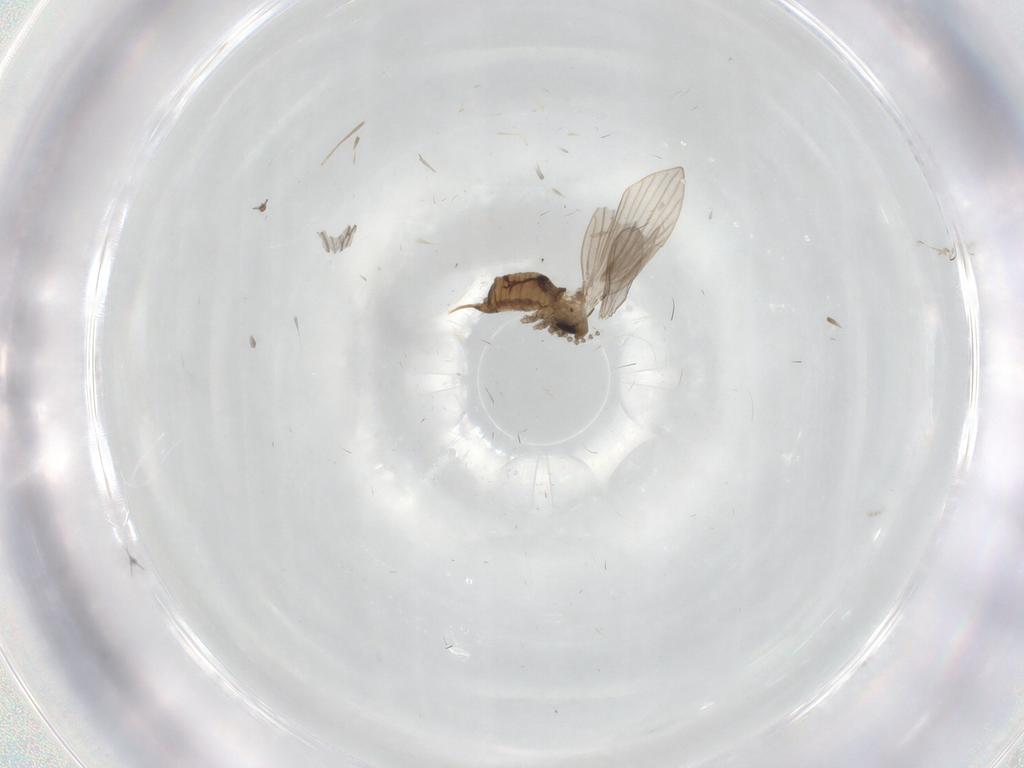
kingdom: Animalia
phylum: Arthropoda
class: Insecta
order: Diptera
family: Psychodidae
